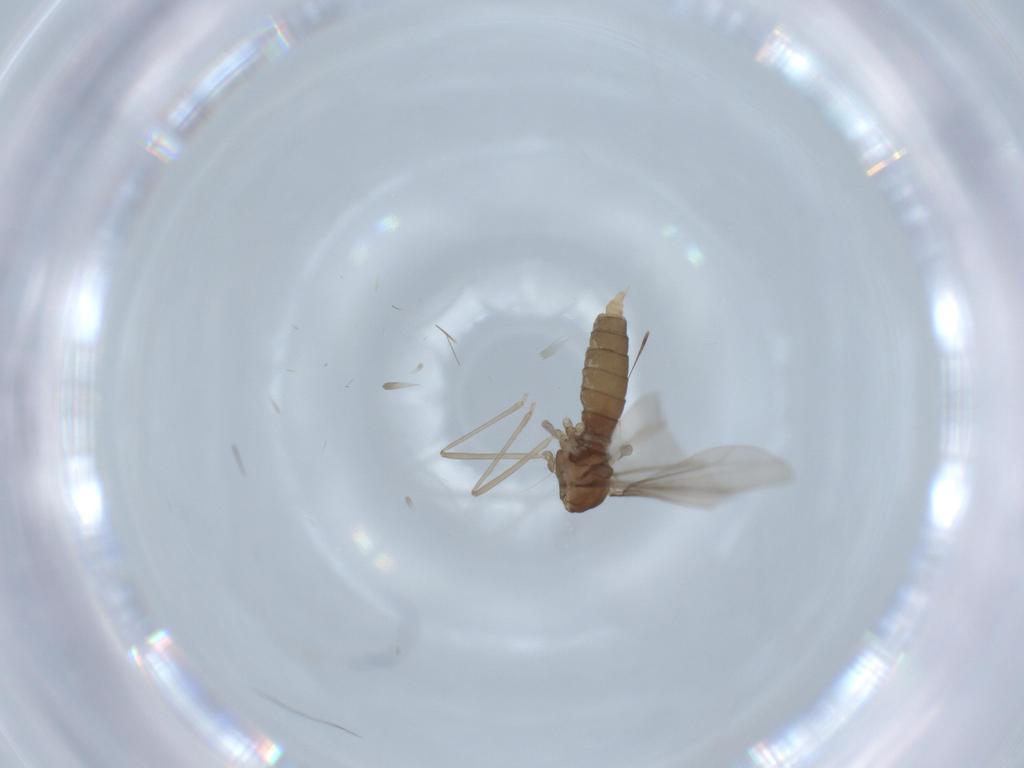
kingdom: Animalia
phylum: Arthropoda
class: Insecta
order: Diptera
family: Cecidomyiidae
